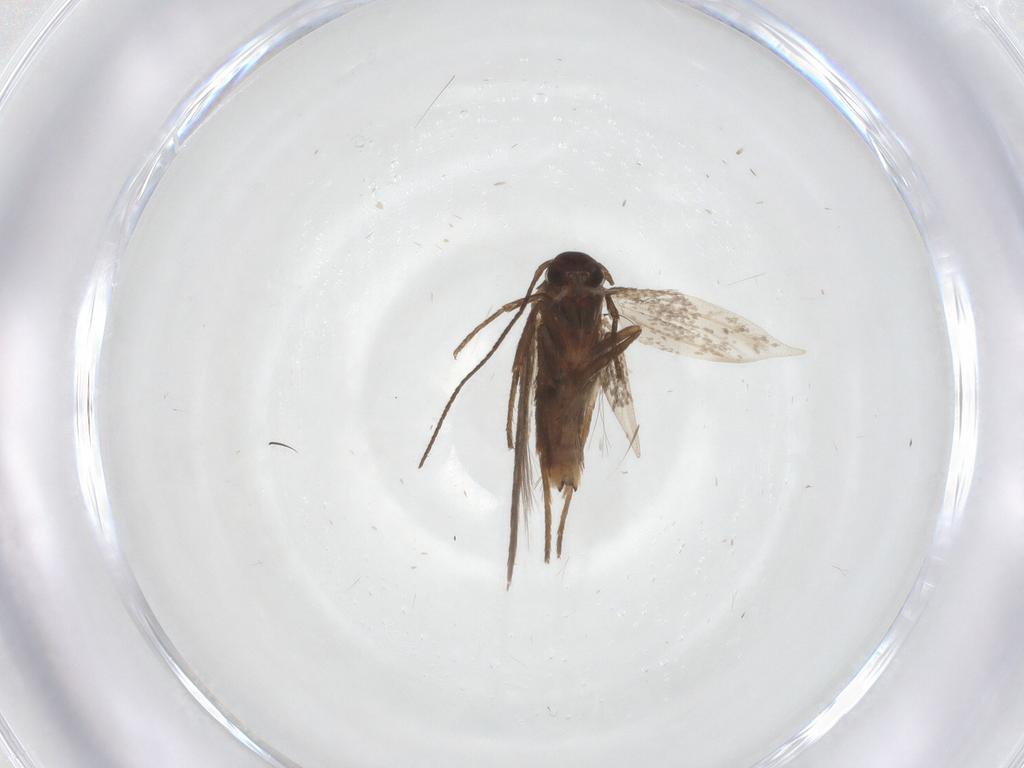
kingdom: Animalia
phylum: Arthropoda
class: Insecta
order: Lepidoptera
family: Scythrididae
